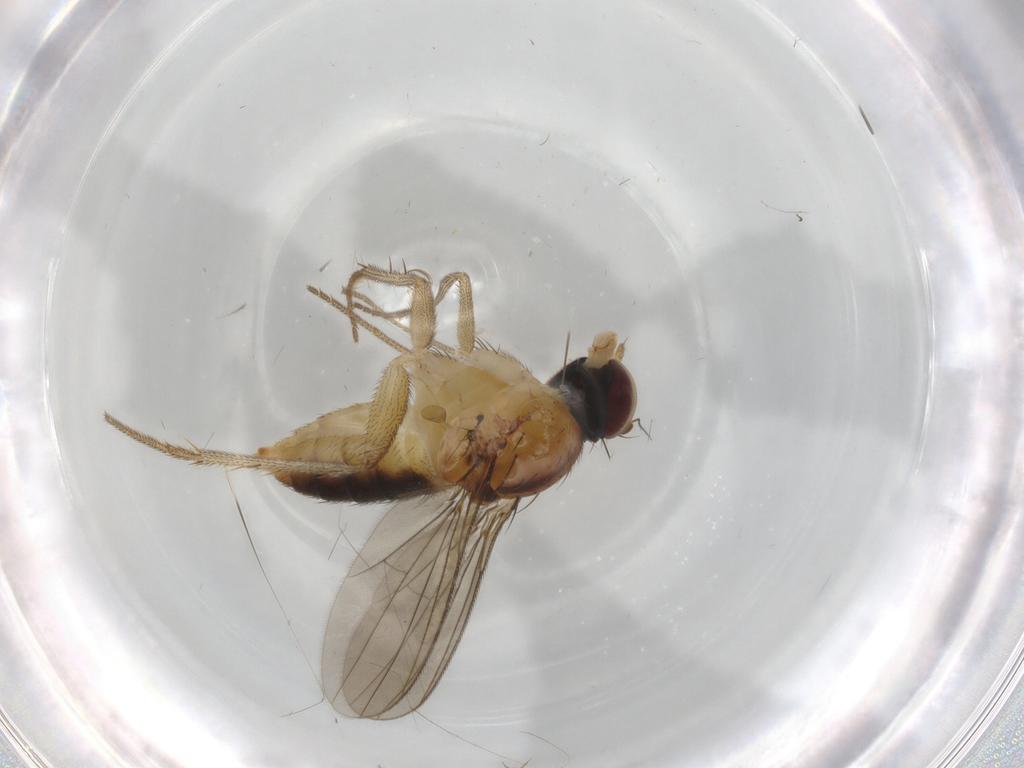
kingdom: Animalia
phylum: Arthropoda
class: Insecta
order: Diptera
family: Dolichopodidae
